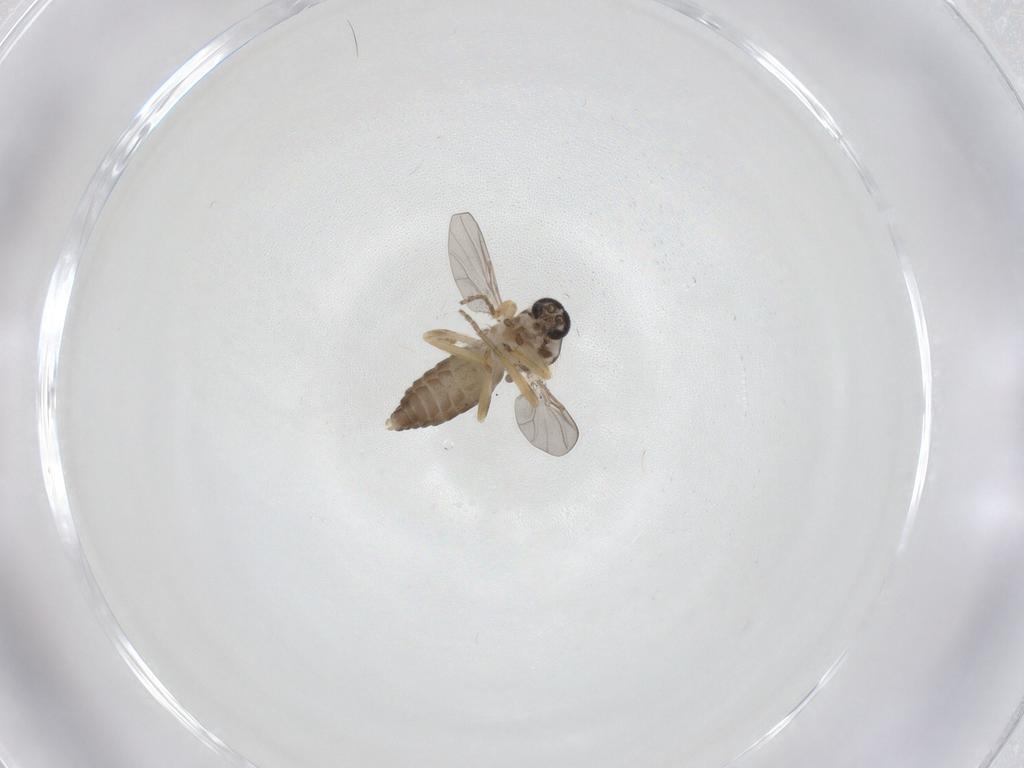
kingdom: Animalia
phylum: Arthropoda
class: Insecta
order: Diptera
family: Ceratopogonidae
